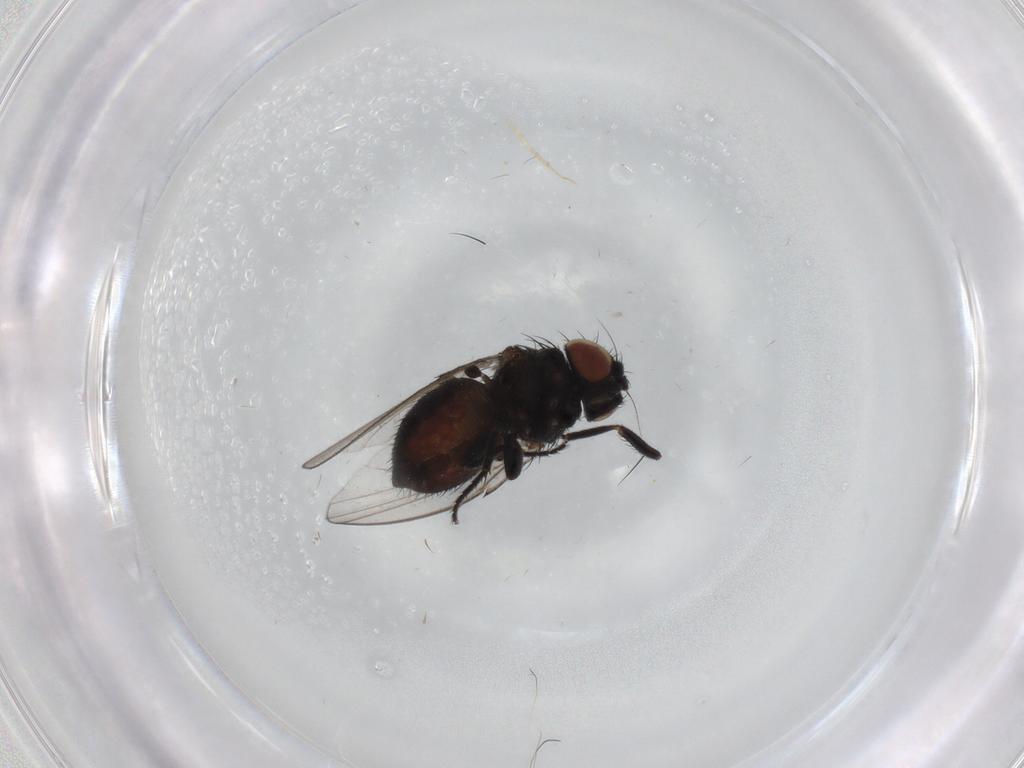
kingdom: Animalia
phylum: Arthropoda
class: Insecta
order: Diptera
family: Milichiidae
